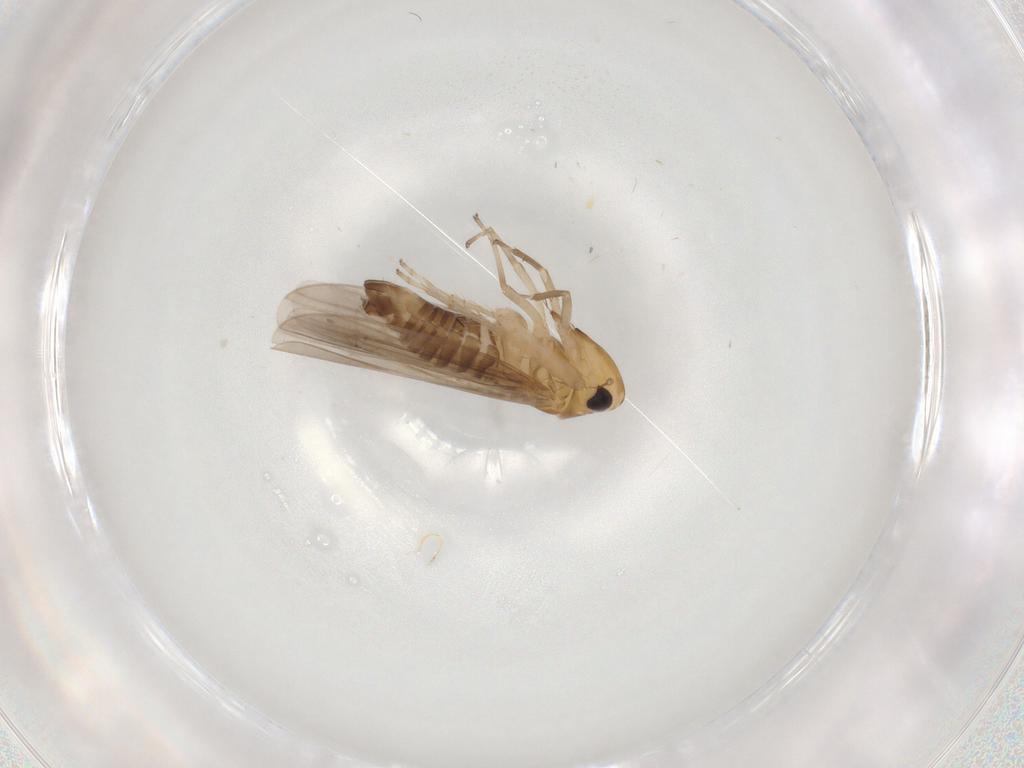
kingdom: Animalia
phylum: Arthropoda
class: Insecta
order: Hemiptera
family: Cicadellidae
